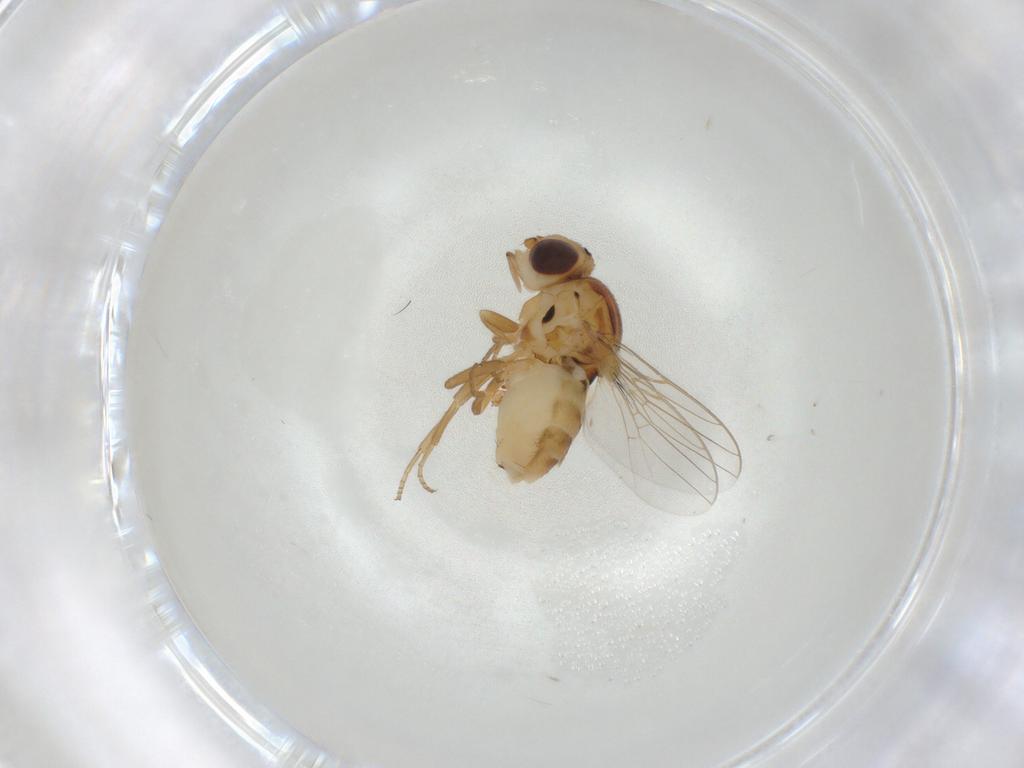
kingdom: Animalia
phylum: Arthropoda
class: Insecta
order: Diptera
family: Chloropidae
